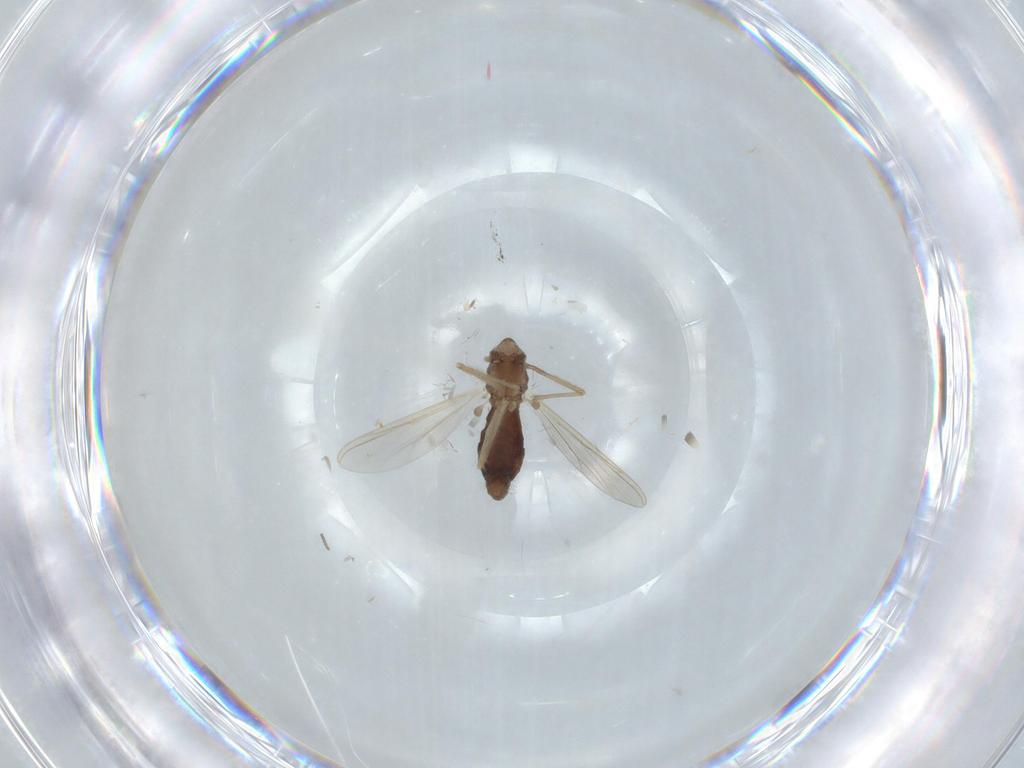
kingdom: Animalia
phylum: Arthropoda
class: Insecta
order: Diptera
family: Chironomidae
